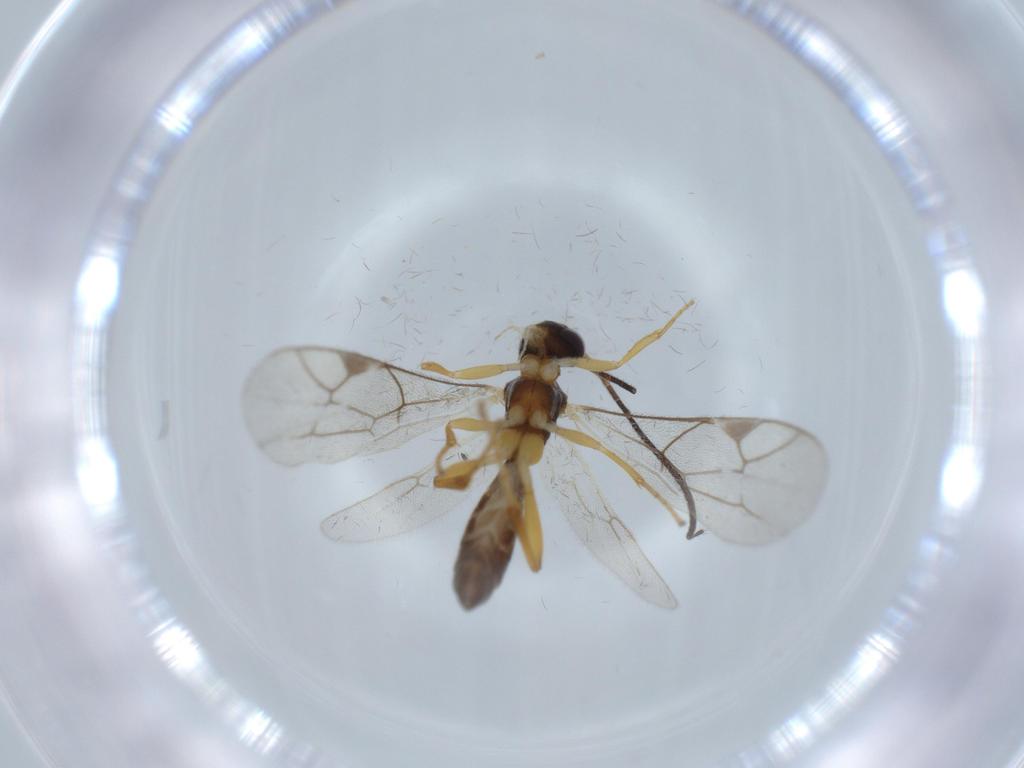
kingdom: Animalia
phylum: Arthropoda
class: Insecta
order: Hymenoptera
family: Ichneumonidae
